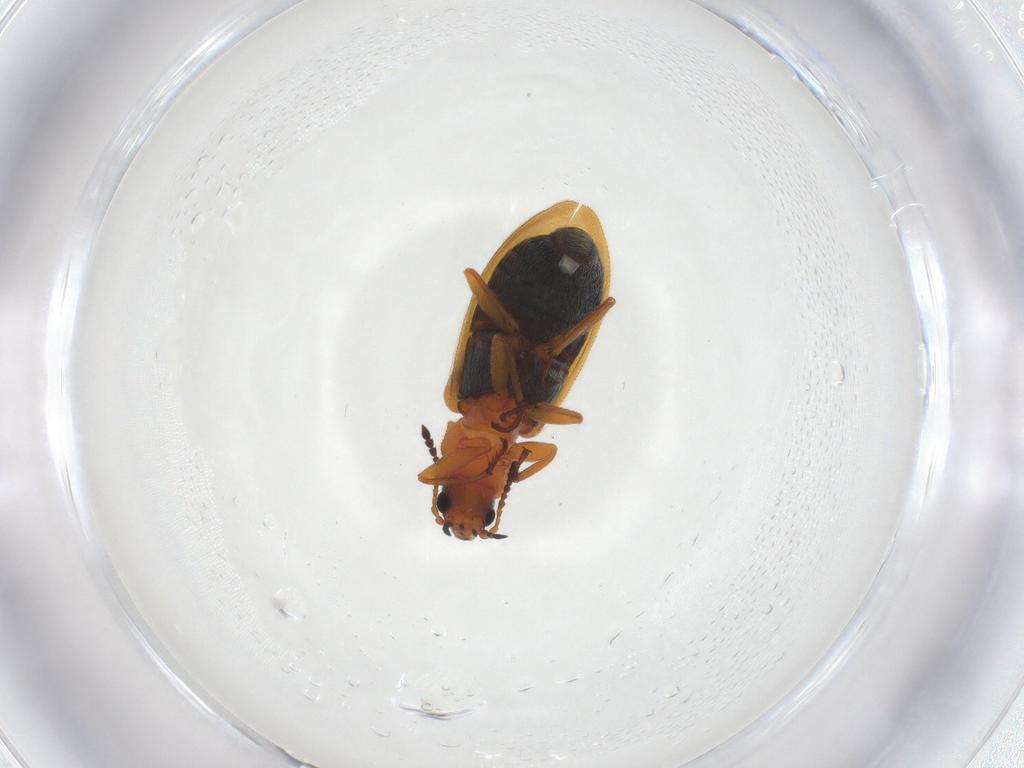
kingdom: Animalia
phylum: Arthropoda
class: Insecta
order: Coleoptera
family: Melyridae
